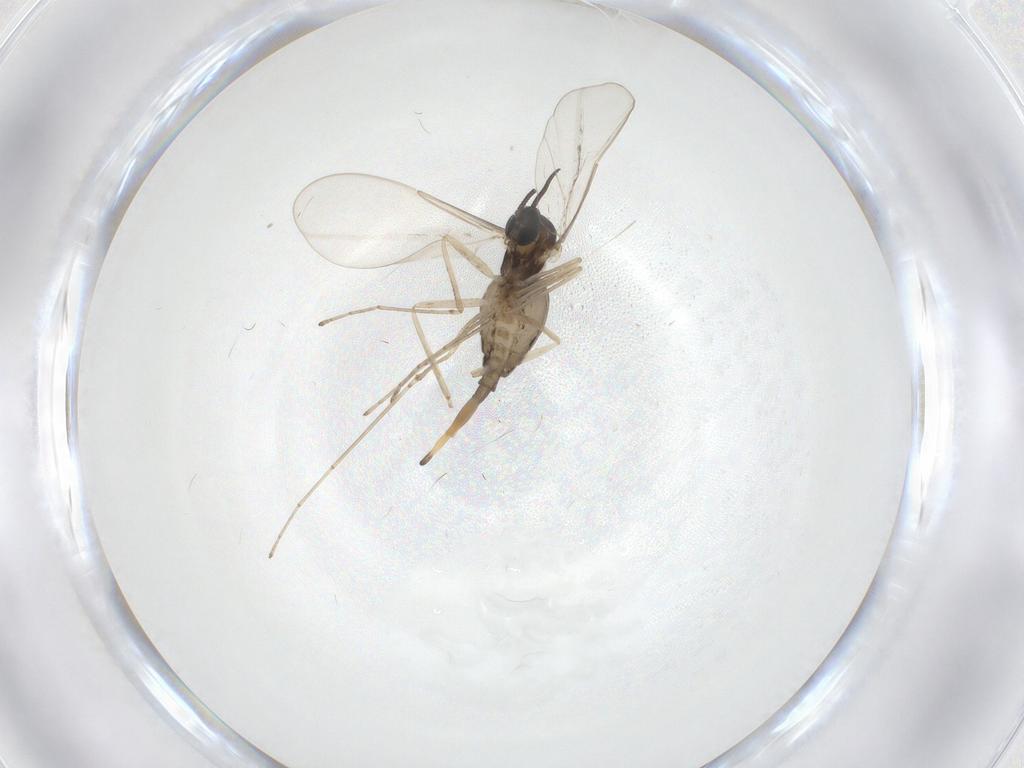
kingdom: Animalia
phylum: Arthropoda
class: Insecta
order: Diptera
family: Cecidomyiidae
